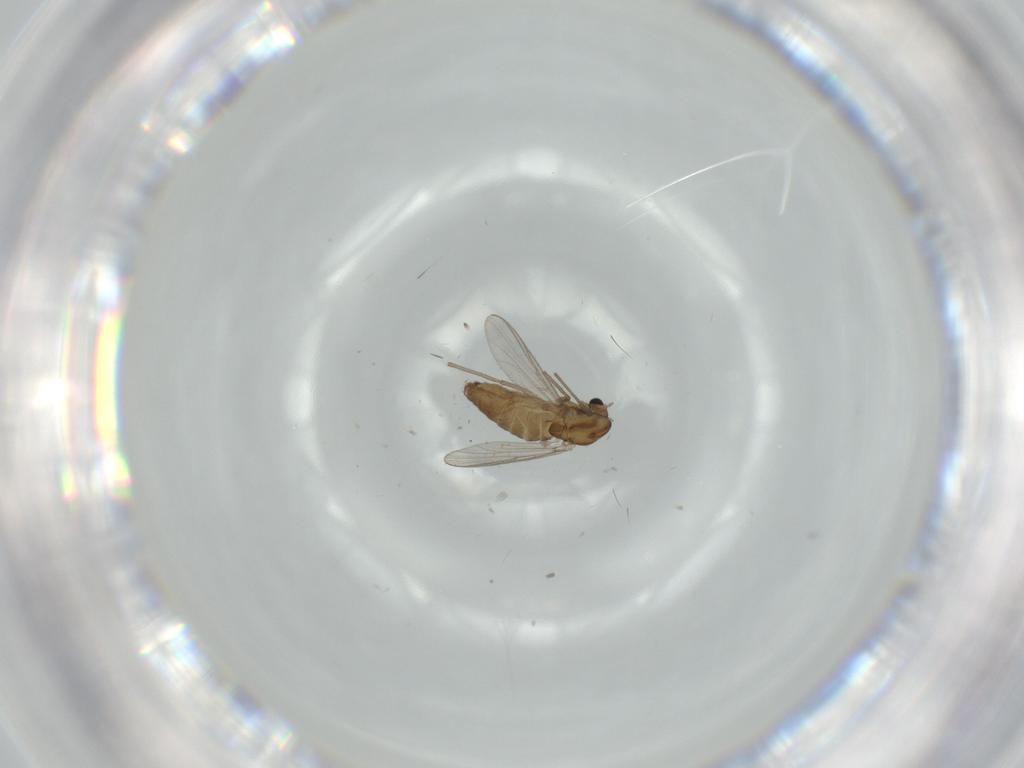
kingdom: Animalia
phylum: Arthropoda
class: Insecta
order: Diptera
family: Chironomidae
